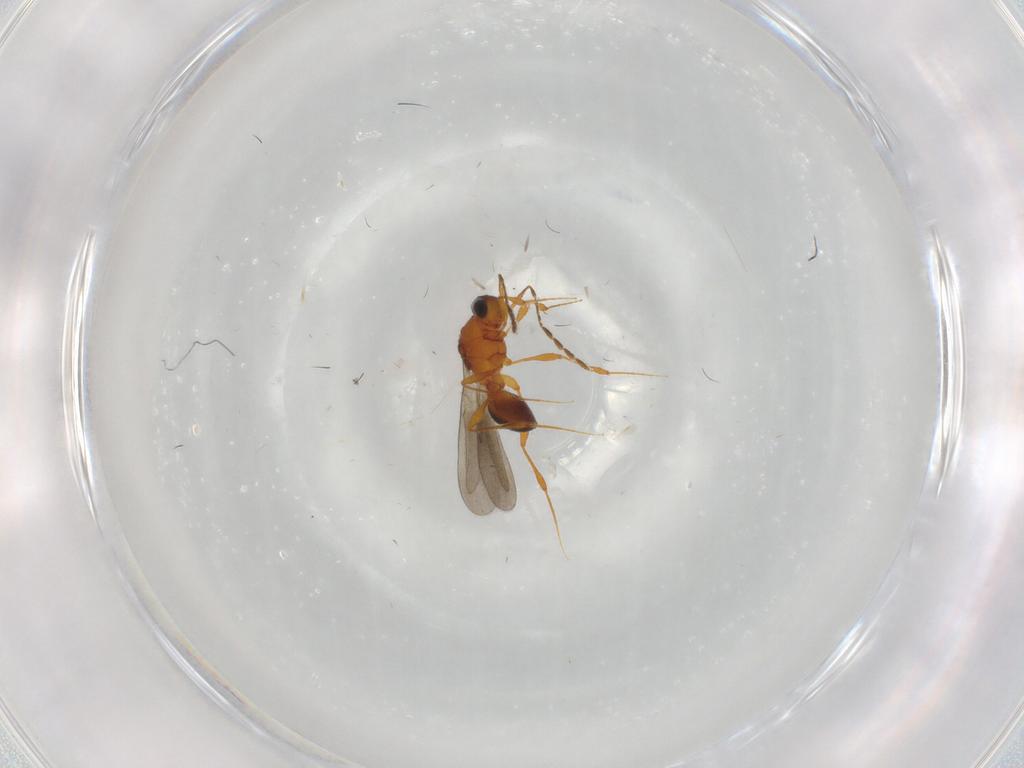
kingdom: Animalia
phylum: Arthropoda
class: Insecta
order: Hymenoptera
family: Platygastridae
